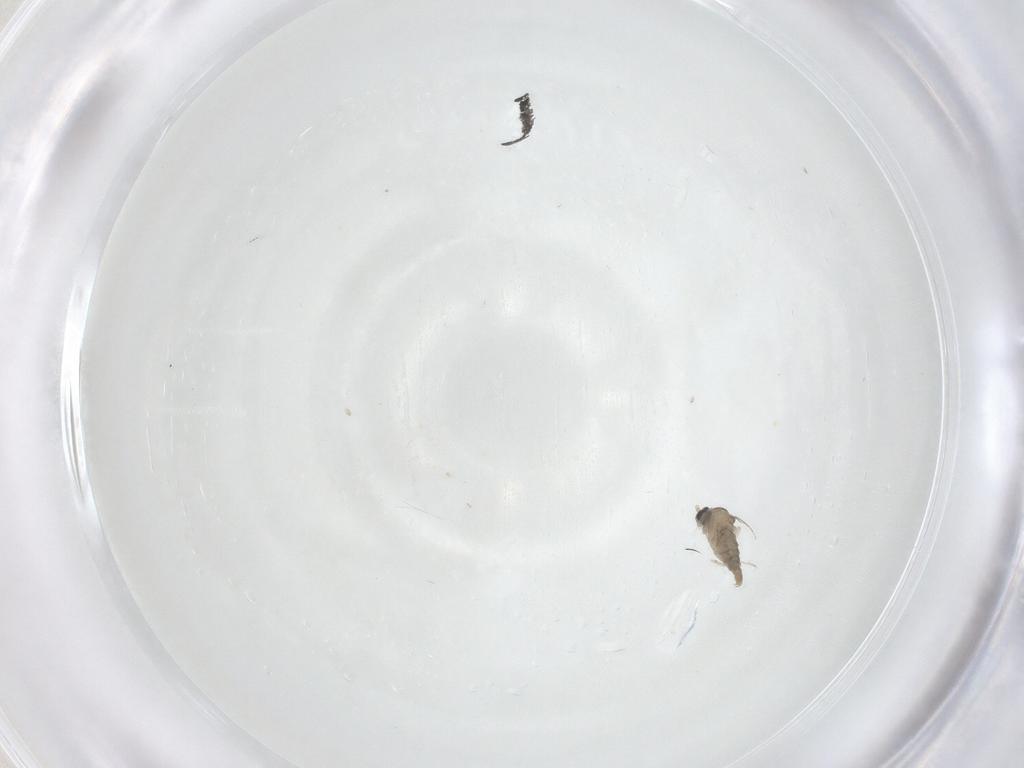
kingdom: Animalia
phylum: Arthropoda
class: Insecta
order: Diptera
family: Cecidomyiidae
